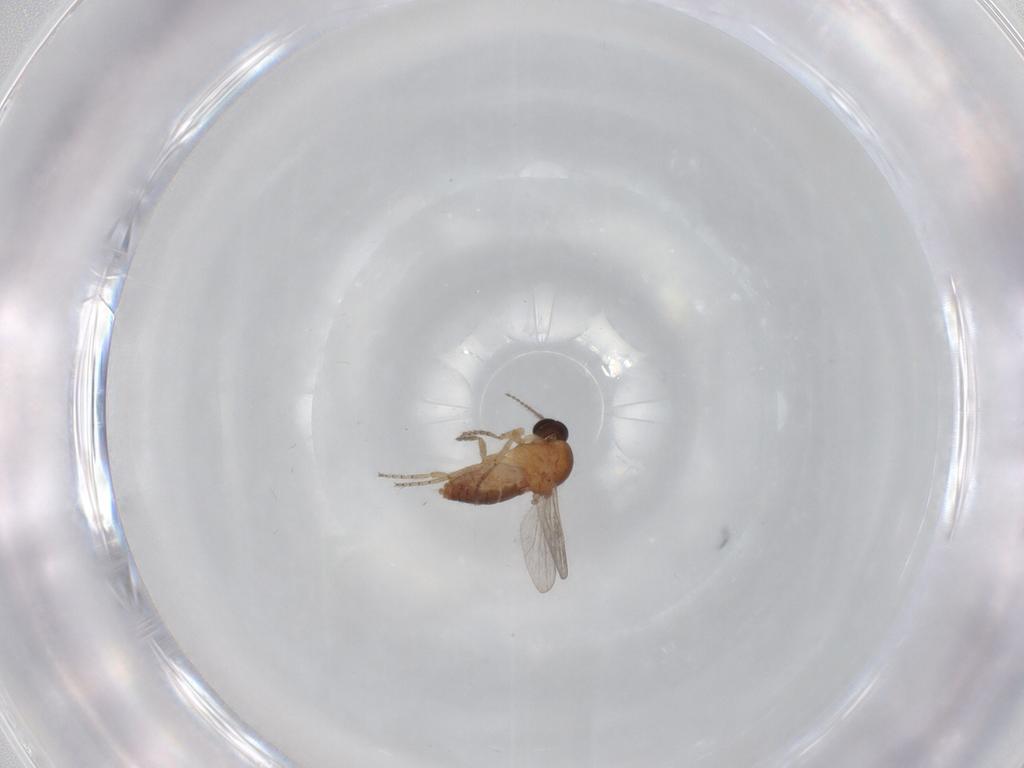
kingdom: Animalia
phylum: Arthropoda
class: Insecta
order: Diptera
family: Ceratopogonidae
